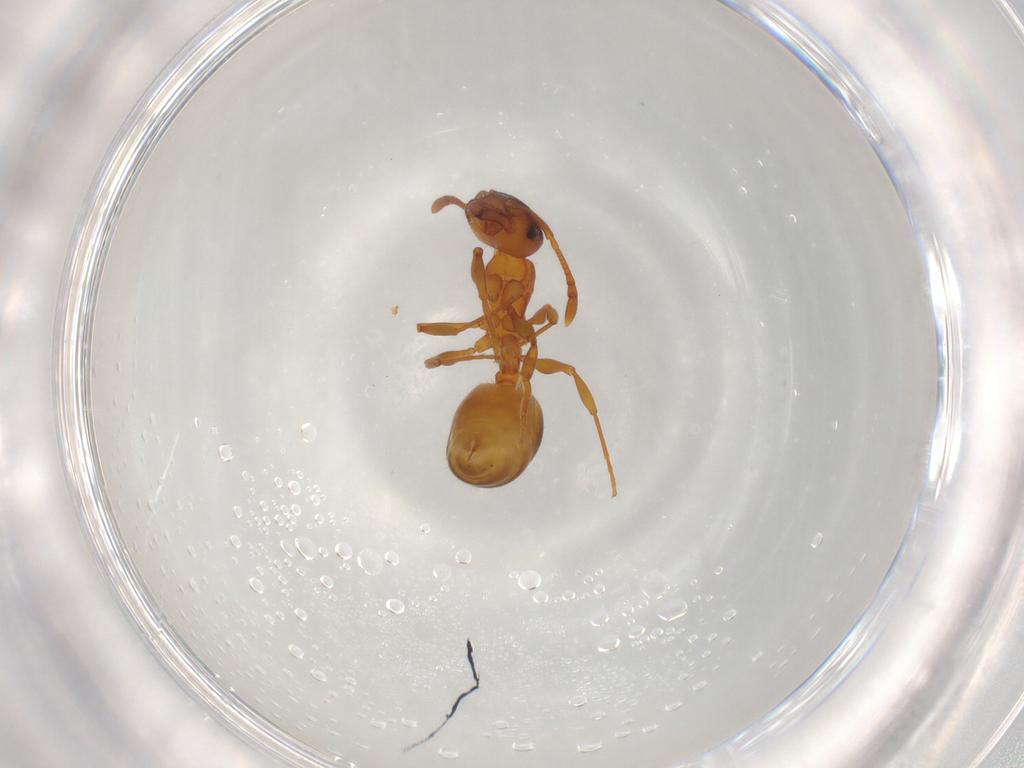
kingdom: Animalia
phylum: Arthropoda
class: Insecta
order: Hymenoptera
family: Formicidae
